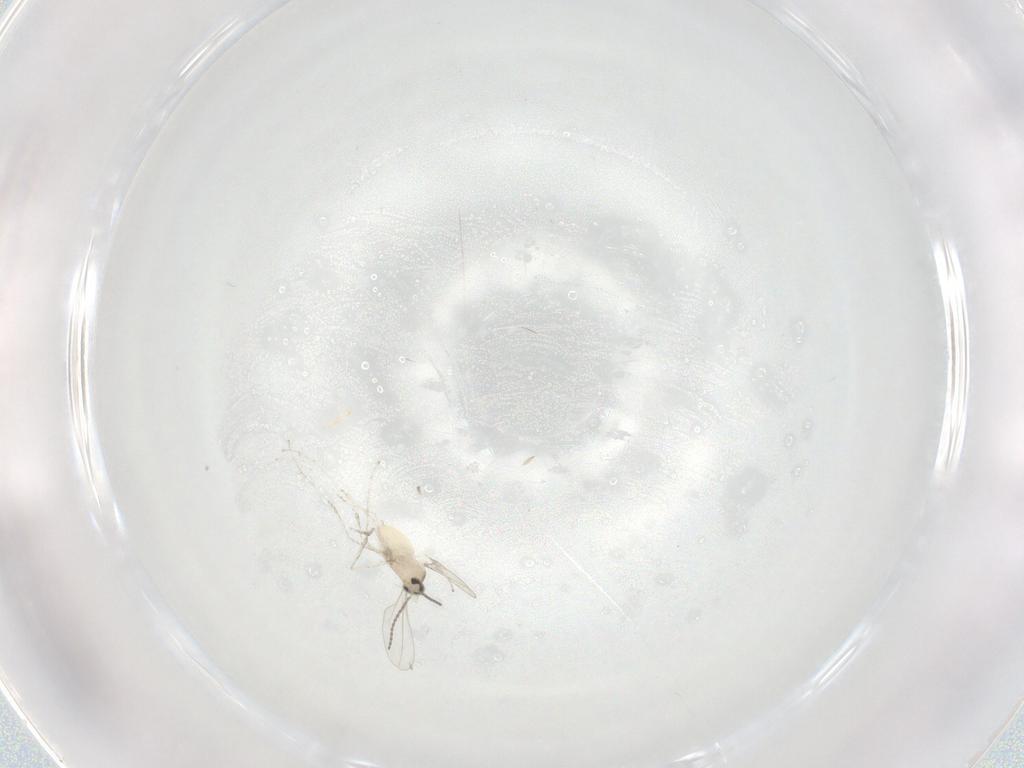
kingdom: Animalia
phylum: Arthropoda
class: Insecta
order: Diptera
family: Cecidomyiidae
